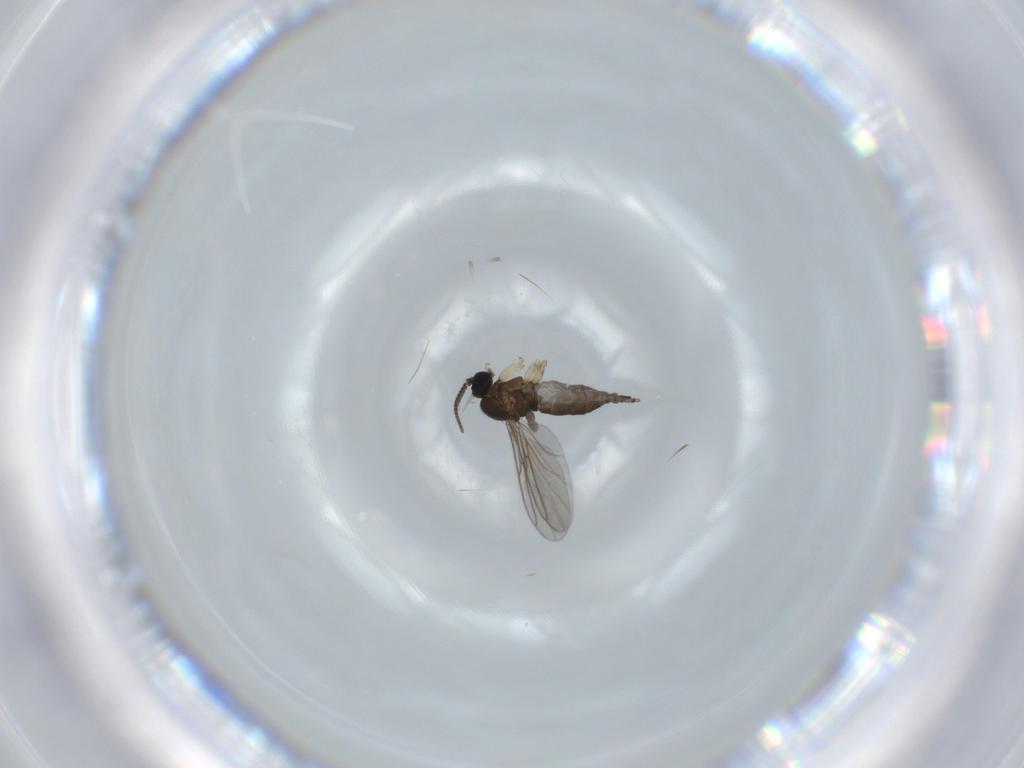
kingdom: Animalia
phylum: Arthropoda
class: Insecta
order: Diptera
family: Sciaridae
